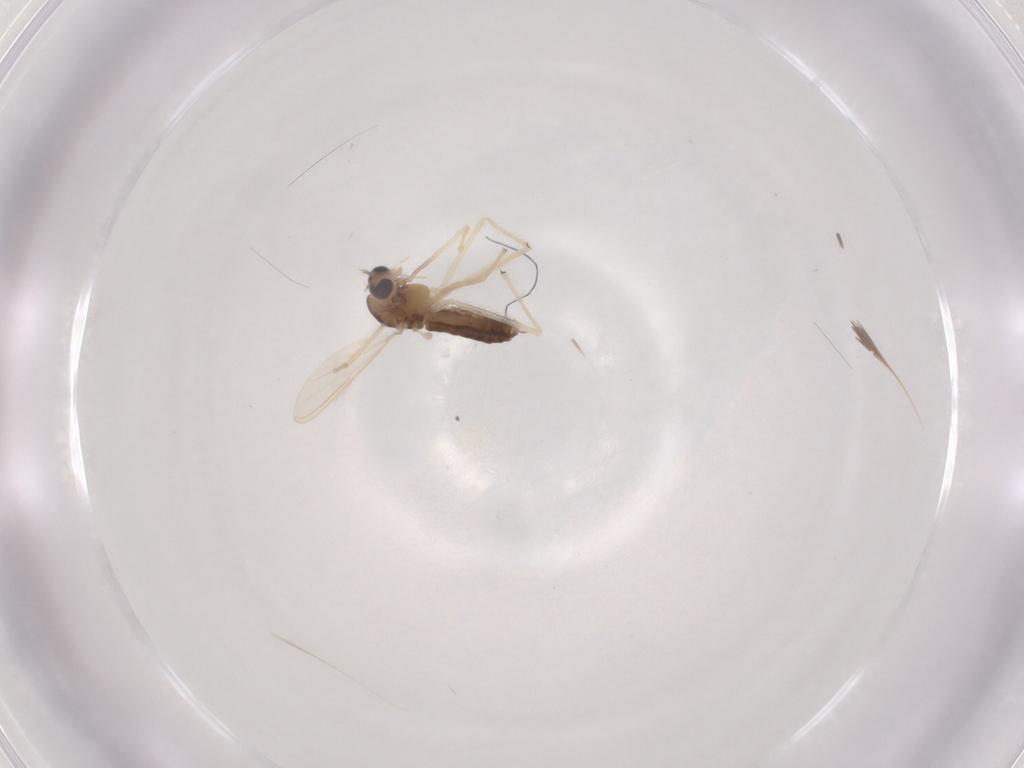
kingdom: Animalia
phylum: Arthropoda
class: Insecta
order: Diptera
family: Chironomidae
